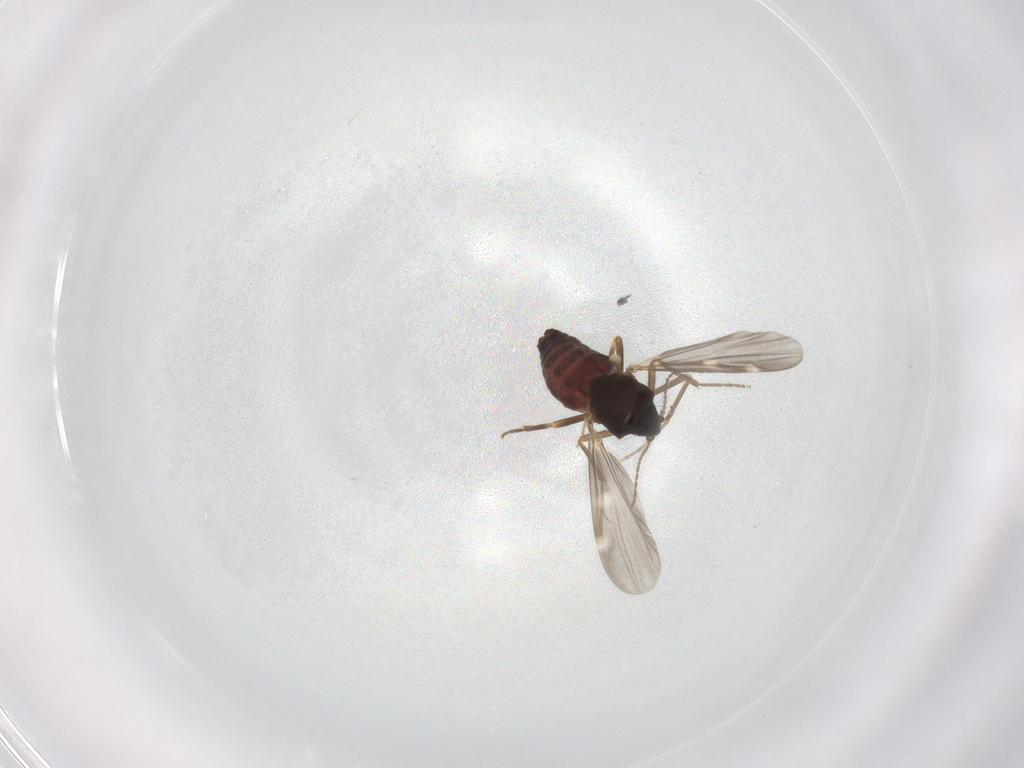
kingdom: Animalia
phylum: Arthropoda
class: Insecta
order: Diptera
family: Ceratopogonidae
